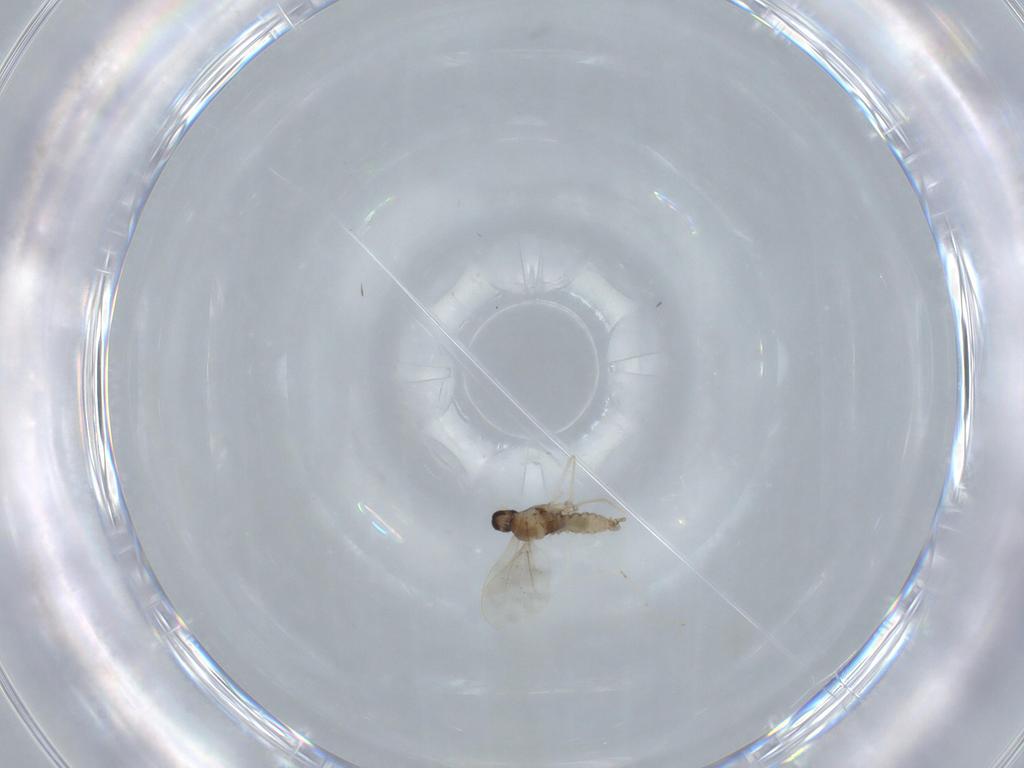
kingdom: Animalia
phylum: Arthropoda
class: Insecta
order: Diptera
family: Cecidomyiidae
